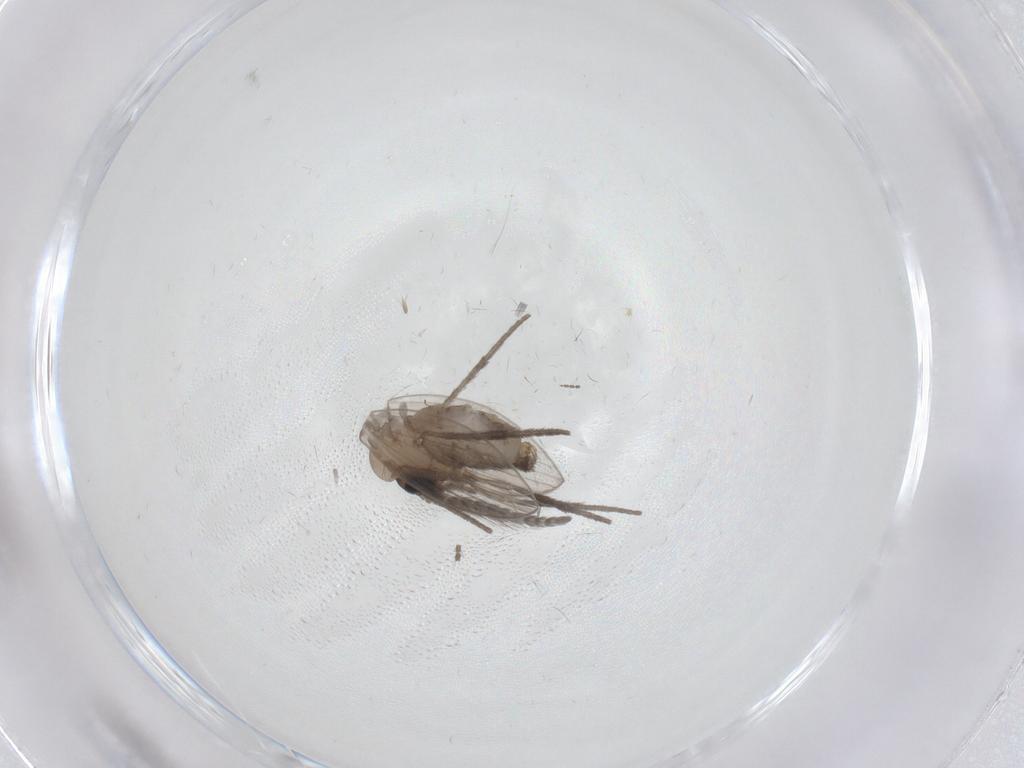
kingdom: Animalia
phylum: Arthropoda
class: Insecta
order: Diptera
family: Psychodidae
